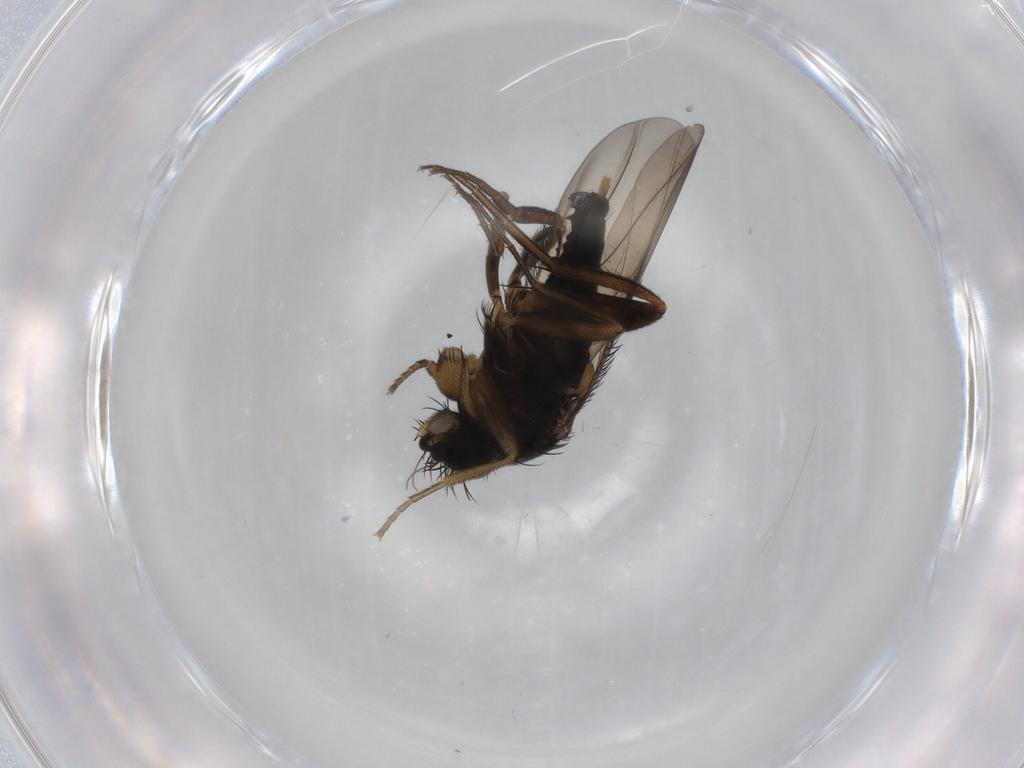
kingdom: Animalia
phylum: Arthropoda
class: Insecta
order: Diptera
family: Phoridae
